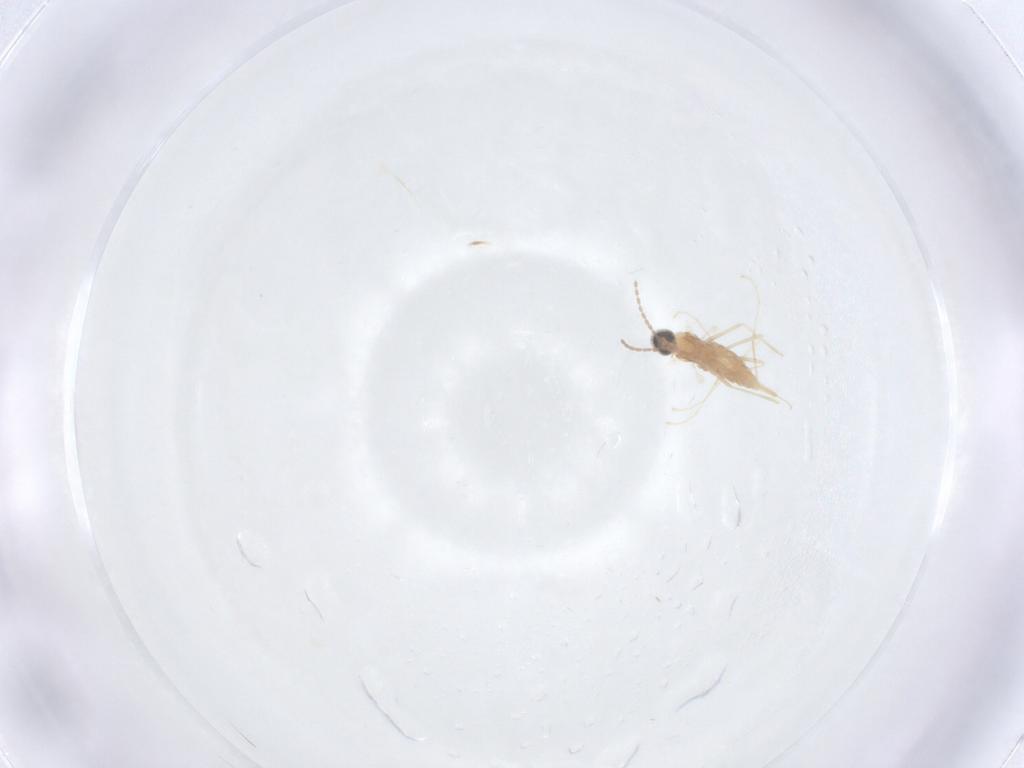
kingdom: Animalia
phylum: Arthropoda
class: Insecta
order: Diptera
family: Cecidomyiidae
